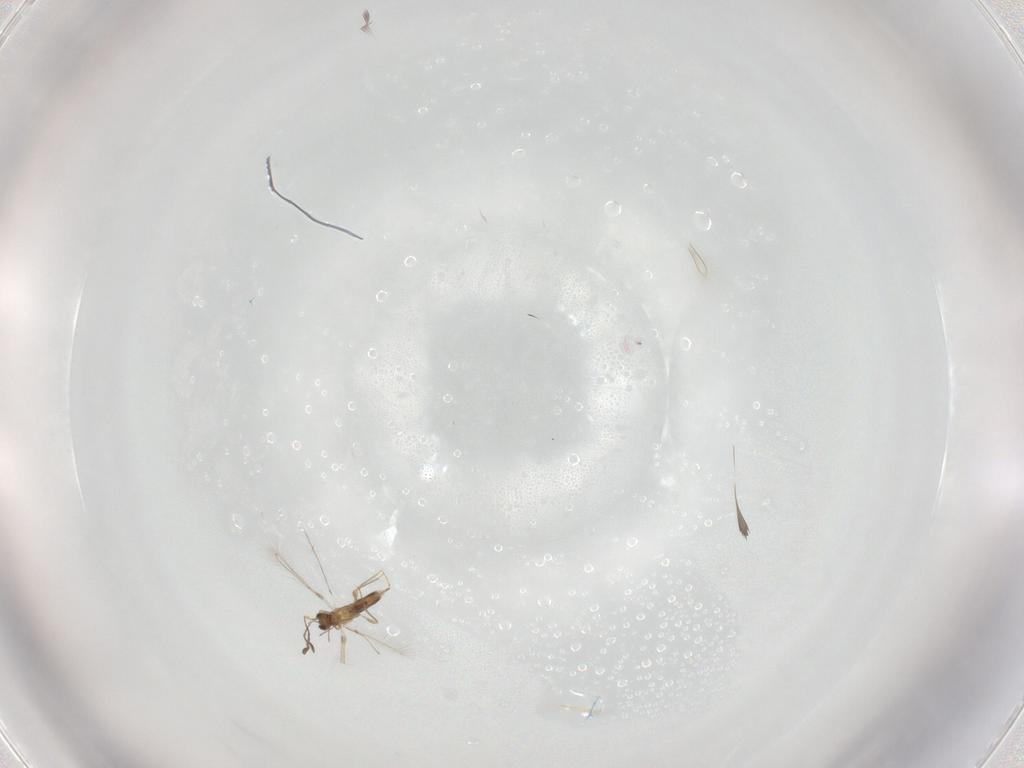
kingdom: Animalia
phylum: Arthropoda
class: Insecta
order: Hymenoptera
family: Mymaridae
